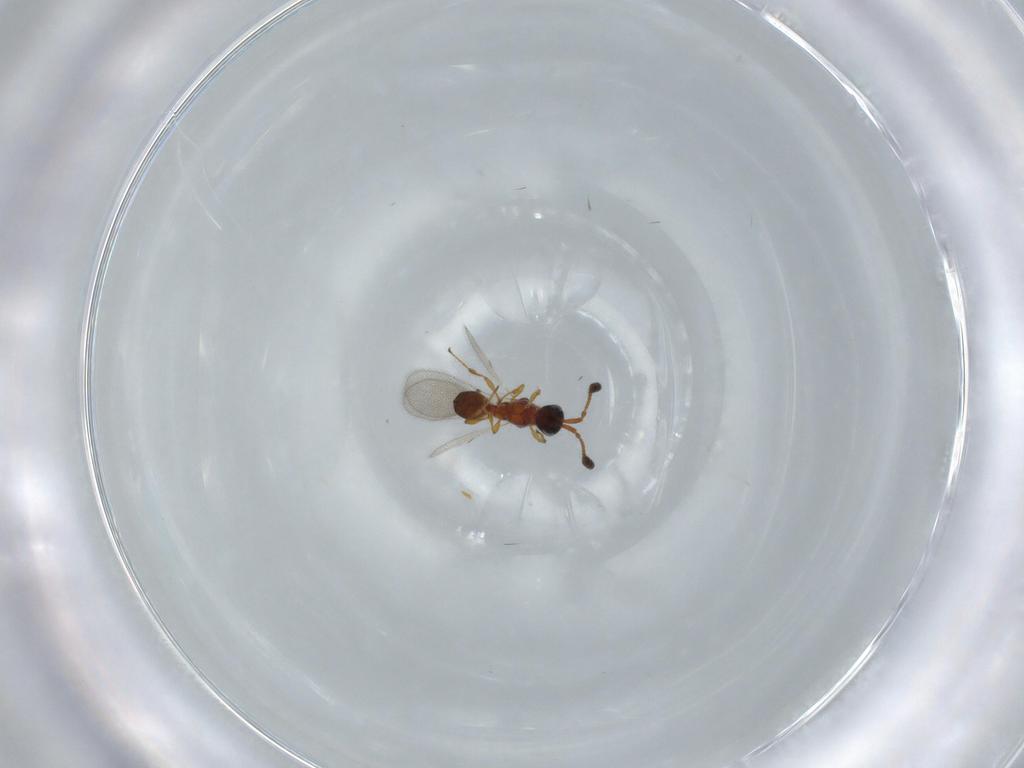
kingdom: Animalia
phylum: Arthropoda
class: Insecta
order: Hymenoptera
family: Diapriidae
